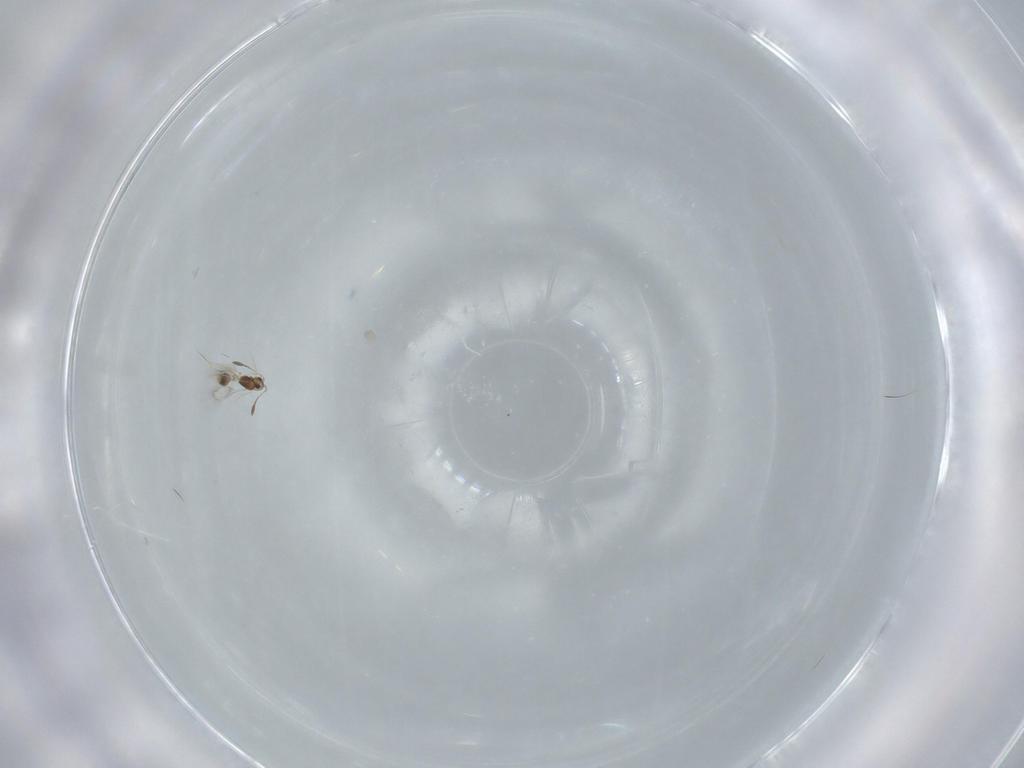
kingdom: Animalia
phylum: Arthropoda
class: Insecta
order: Hymenoptera
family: Mymarommatidae
